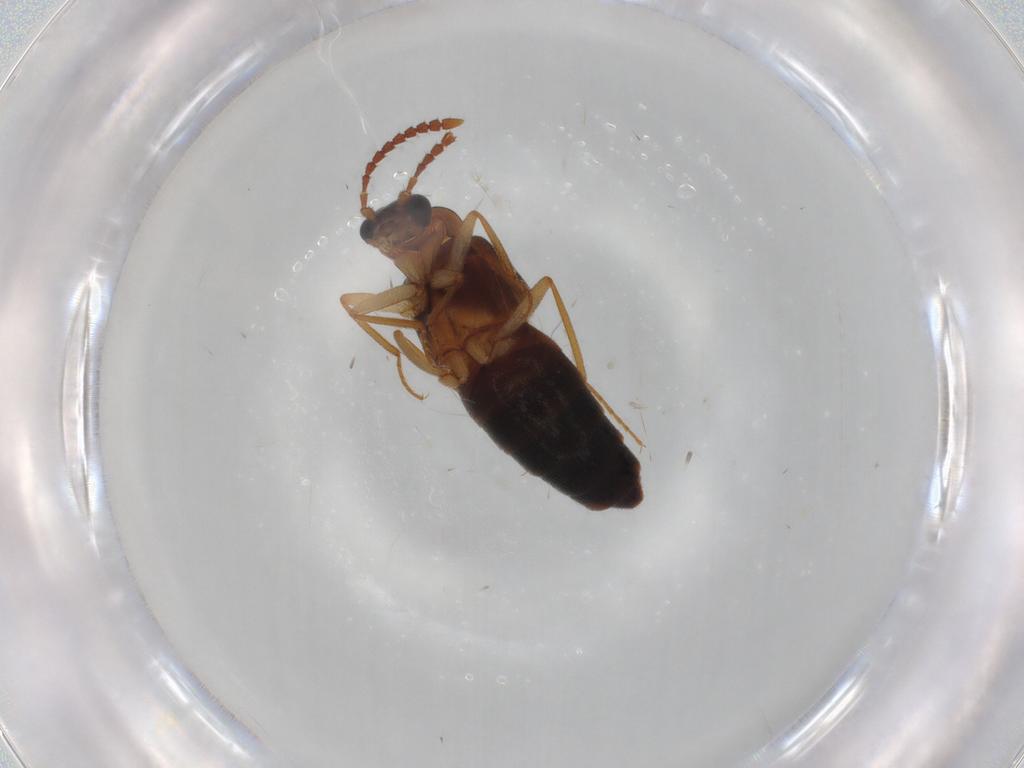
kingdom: Animalia
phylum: Arthropoda
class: Insecta
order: Coleoptera
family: Staphylinidae
